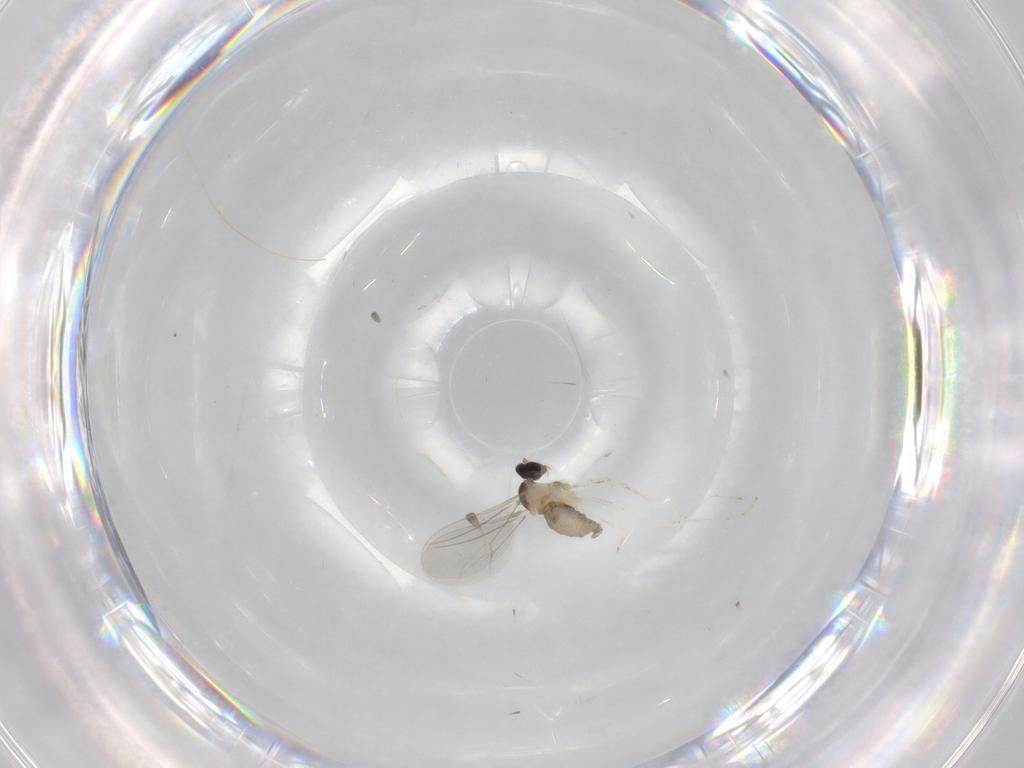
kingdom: Animalia
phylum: Arthropoda
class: Insecta
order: Diptera
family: Cecidomyiidae
